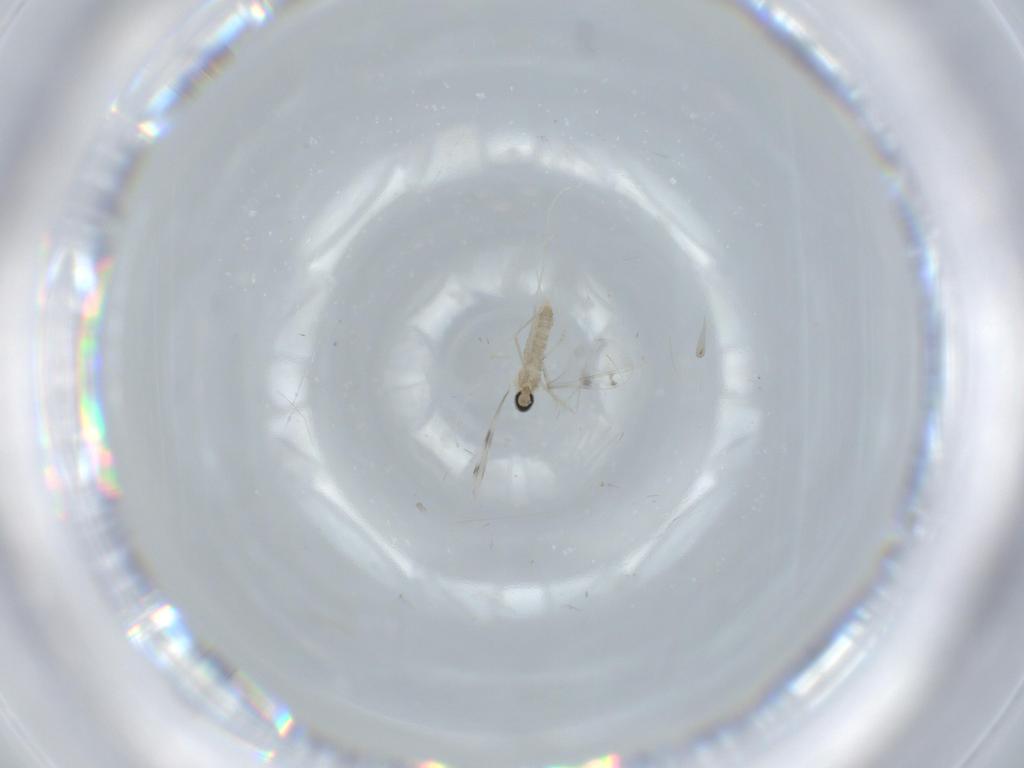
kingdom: Animalia
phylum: Arthropoda
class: Insecta
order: Diptera
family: Cecidomyiidae
